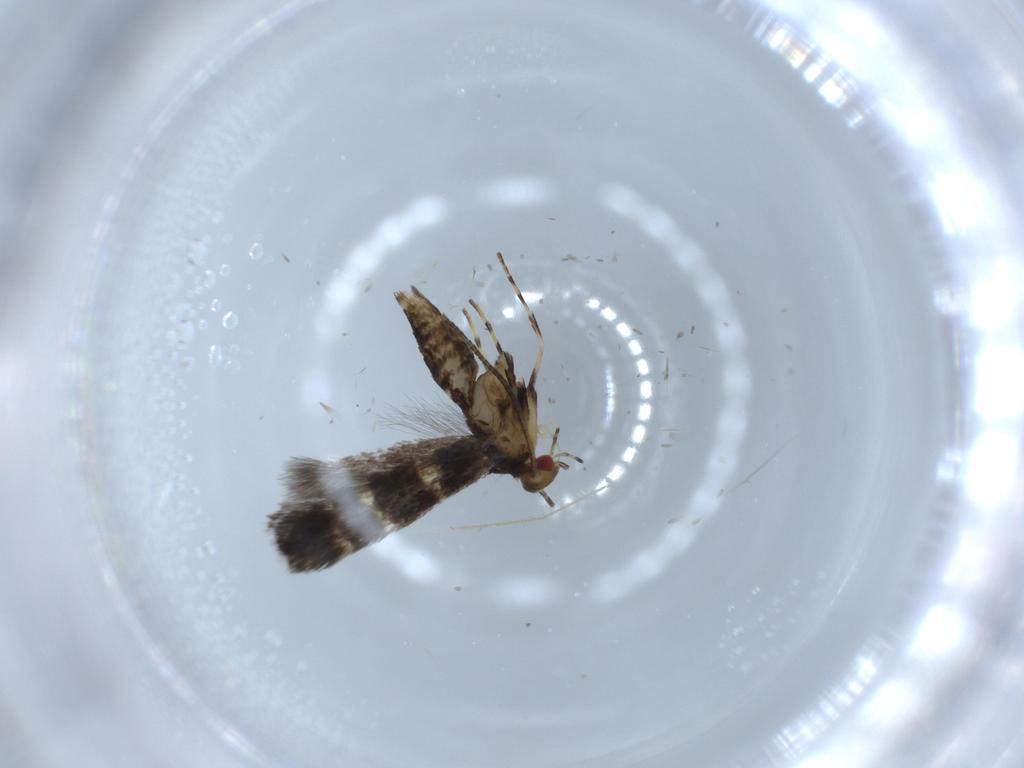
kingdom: Animalia
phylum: Arthropoda
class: Insecta
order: Lepidoptera
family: Gracillariidae
